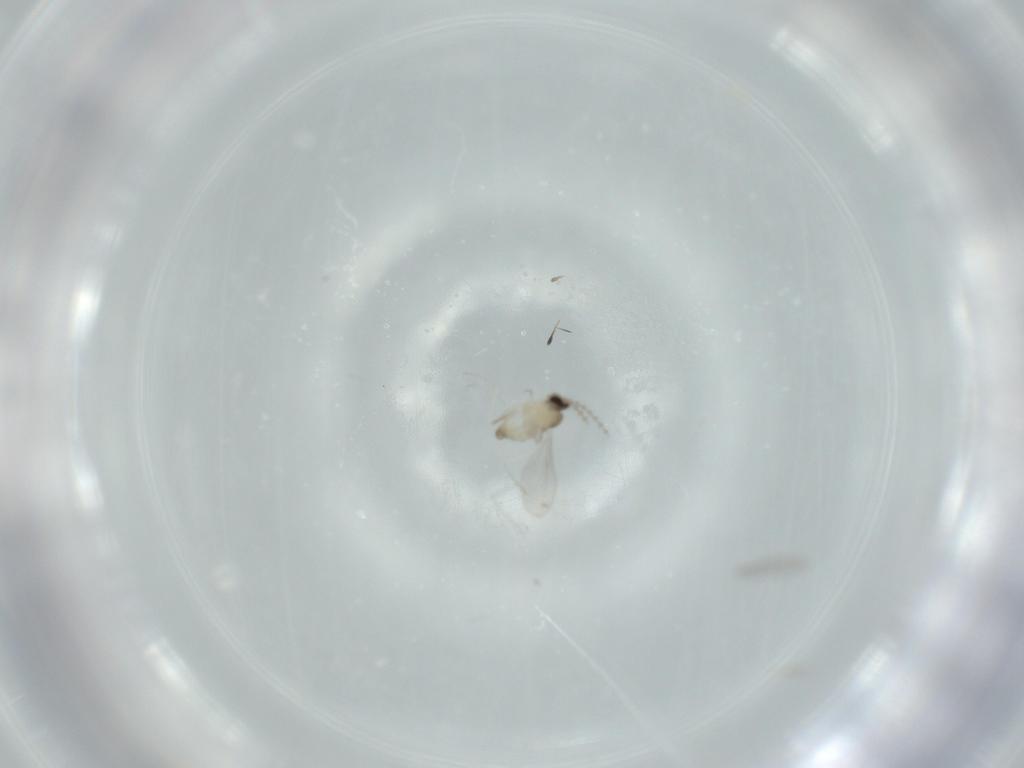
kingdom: Animalia
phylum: Arthropoda
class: Insecta
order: Diptera
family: Cecidomyiidae
